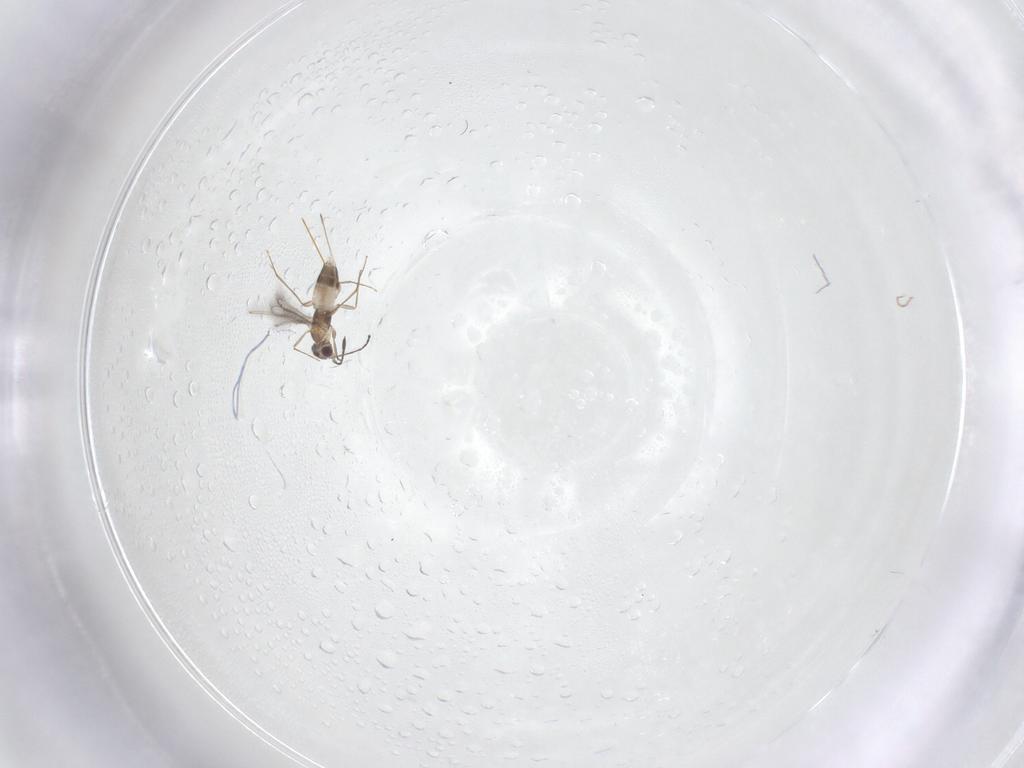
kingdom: Animalia
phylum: Arthropoda
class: Insecta
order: Hymenoptera
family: Mymaridae
